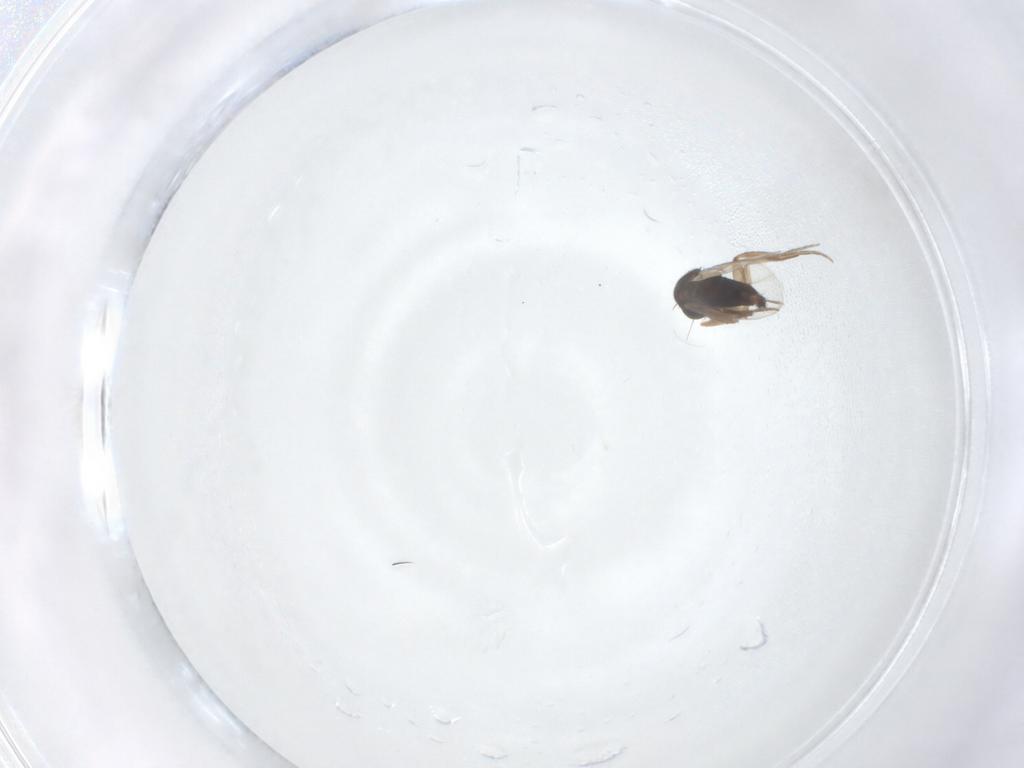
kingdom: Animalia
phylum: Arthropoda
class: Insecta
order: Diptera
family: Phoridae
